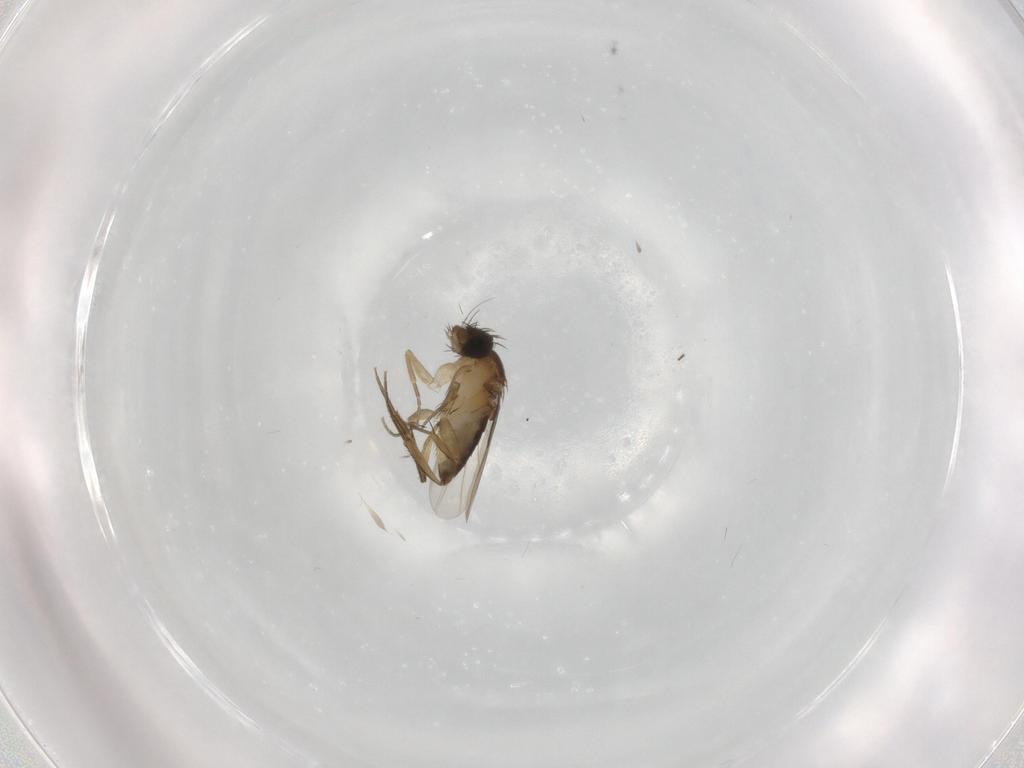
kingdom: Animalia
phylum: Arthropoda
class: Insecta
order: Diptera
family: Phoridae
